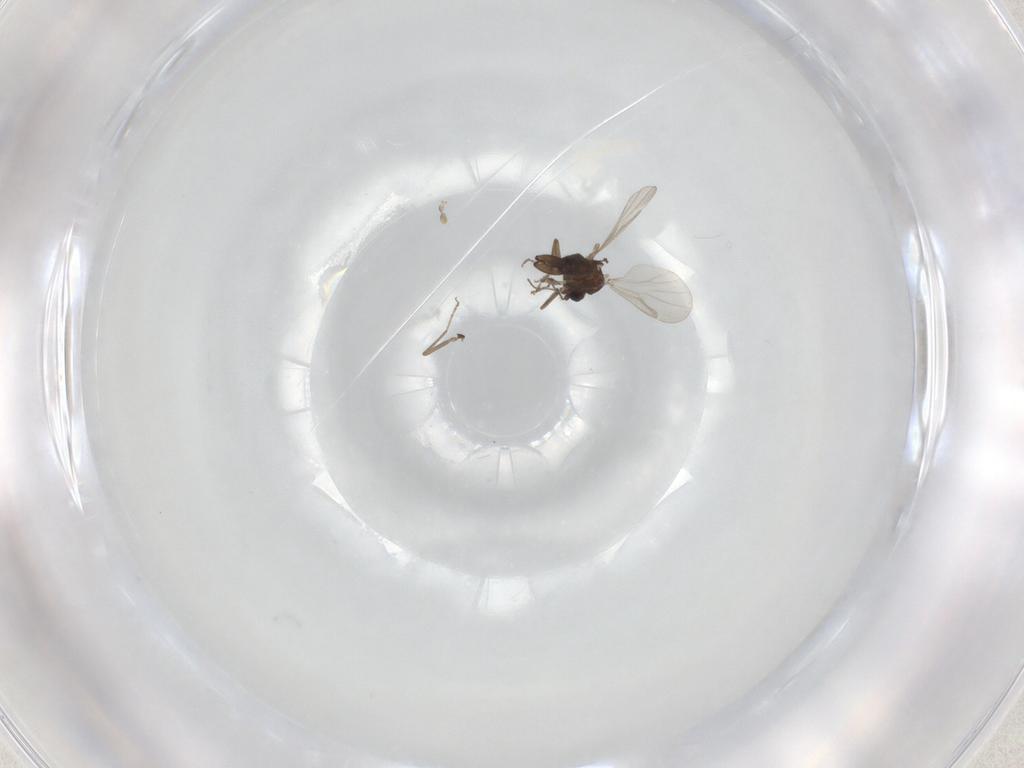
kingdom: Animalia
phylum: Arthropoda
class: Insecta
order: Diptera
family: Ceratopogonidae
